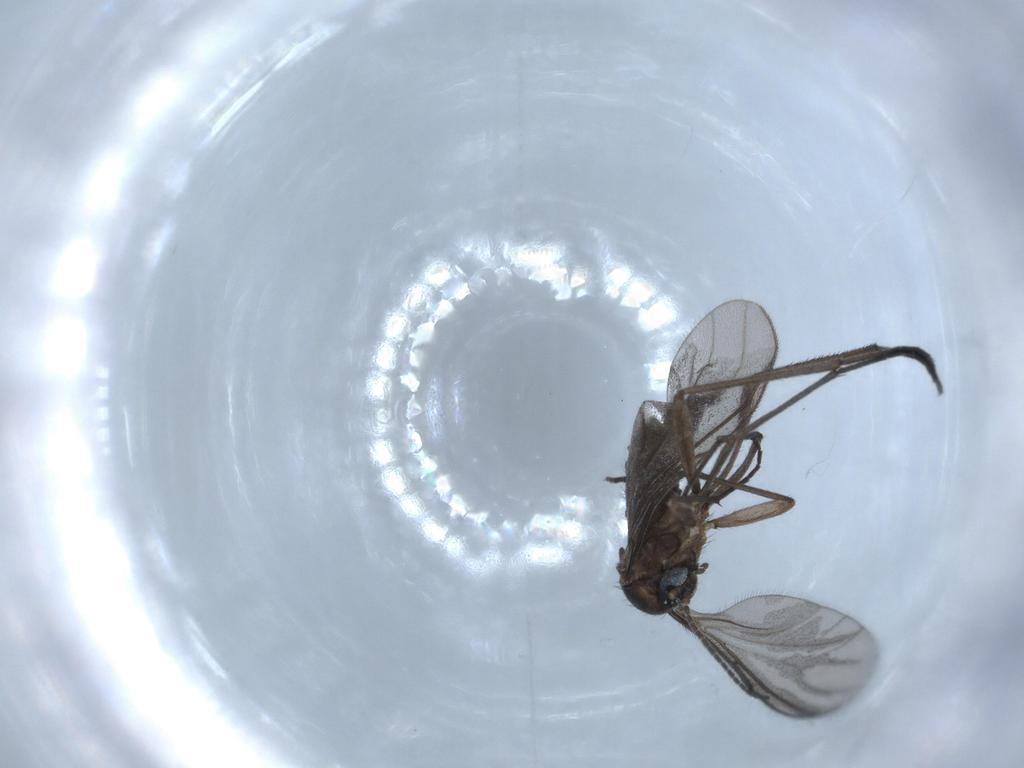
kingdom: Animalia
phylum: Arthropoda
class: Insecta
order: Diptera
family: Sciaridae
